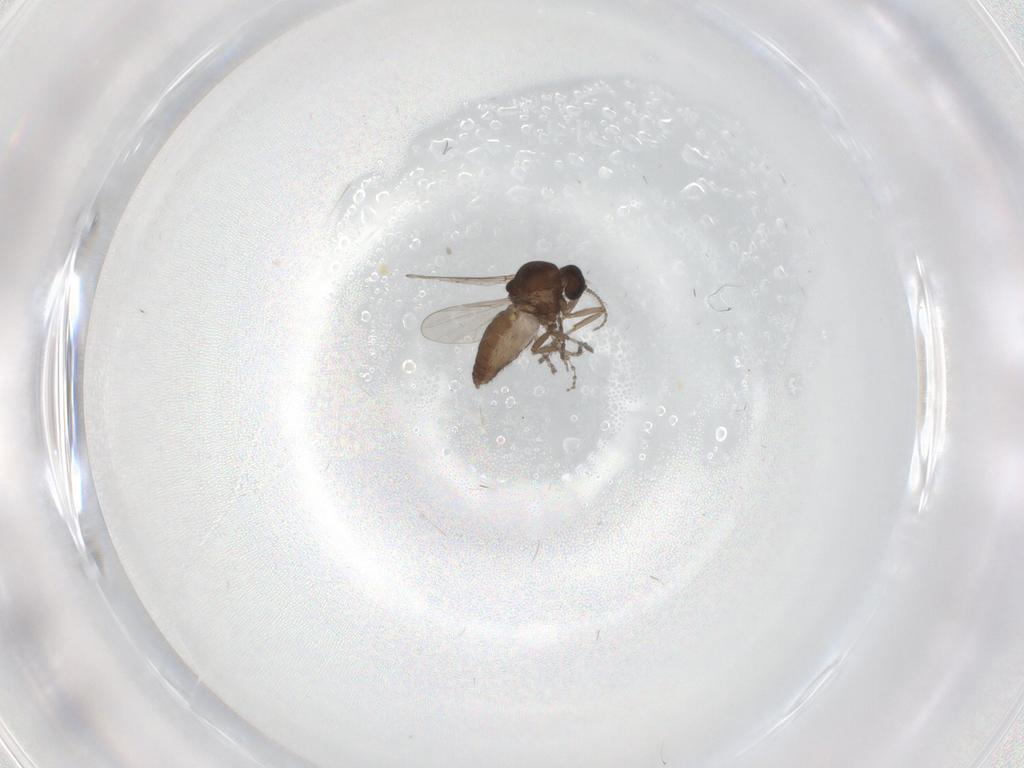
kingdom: Animalia
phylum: Arthropoda
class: Insecta
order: Diptera
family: Ceratopogonidae
